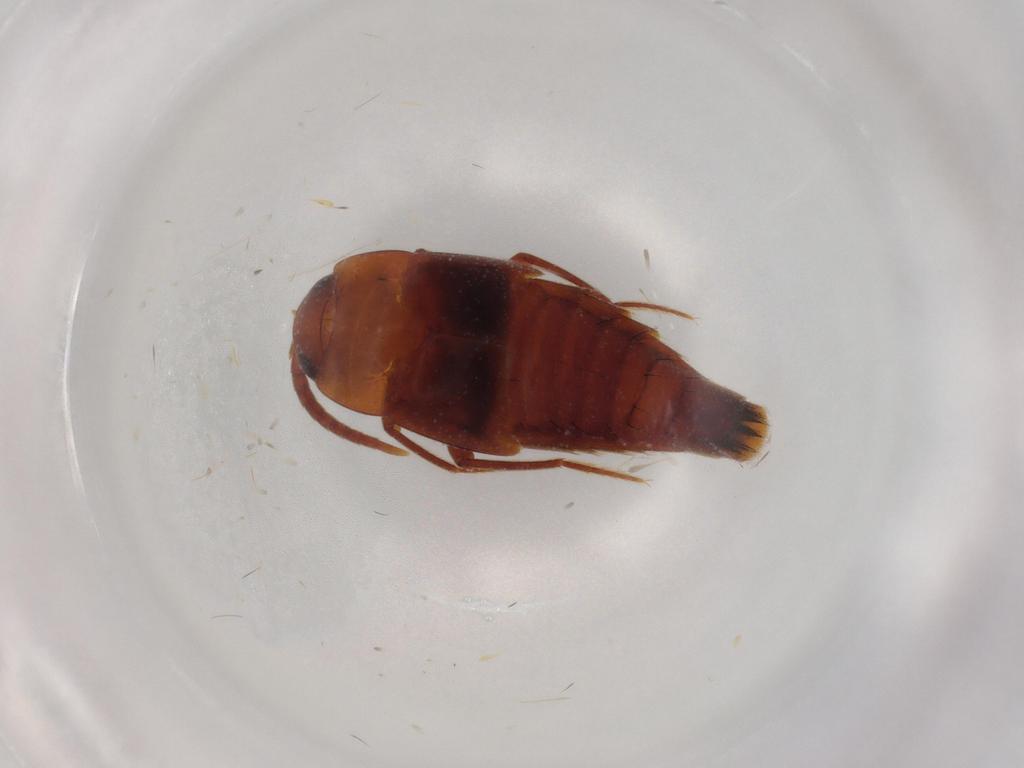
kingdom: Animalia
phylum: Arthropoda
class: Insecta
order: Coleoptera
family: Staphylinidae
